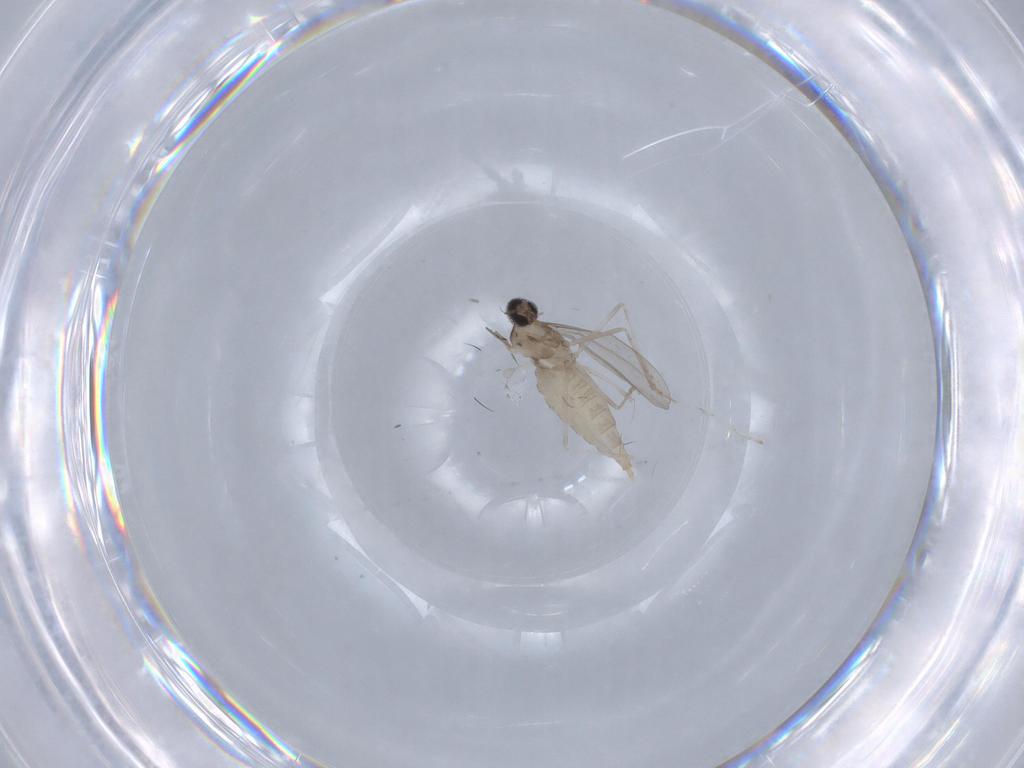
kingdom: Animalia
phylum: Arthropoda
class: Insecta
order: Diptera
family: Cecidomyiidae
